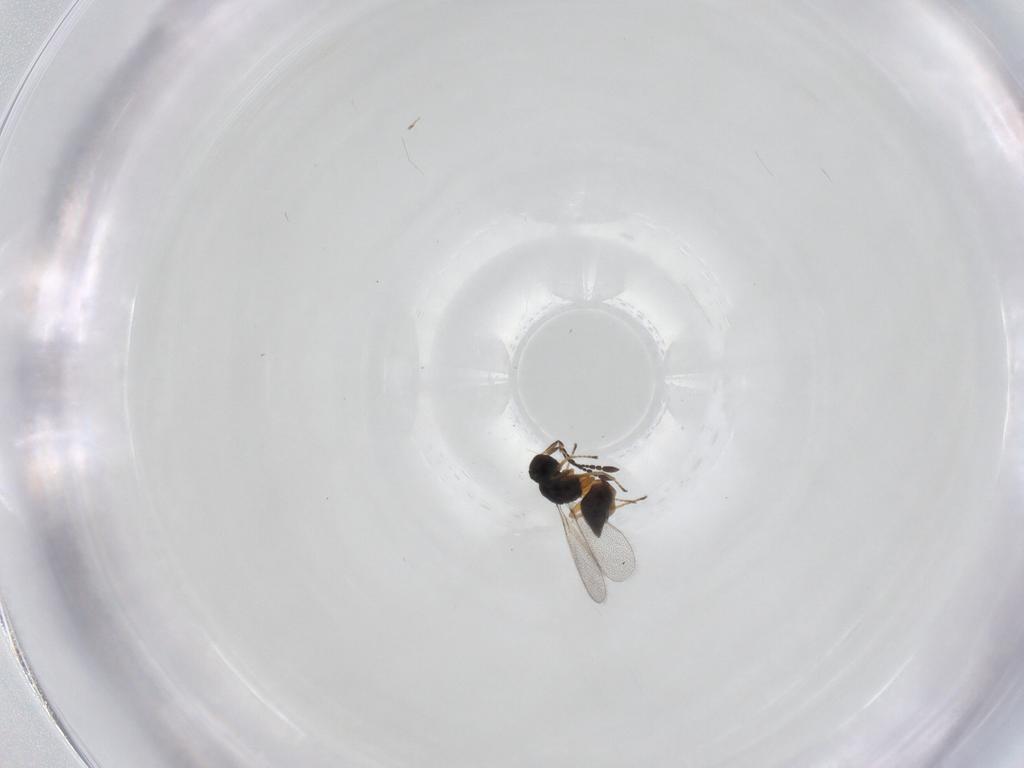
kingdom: Animalia
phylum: Arthropoda
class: Insecta
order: Hymenoptera
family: Mymaridae
